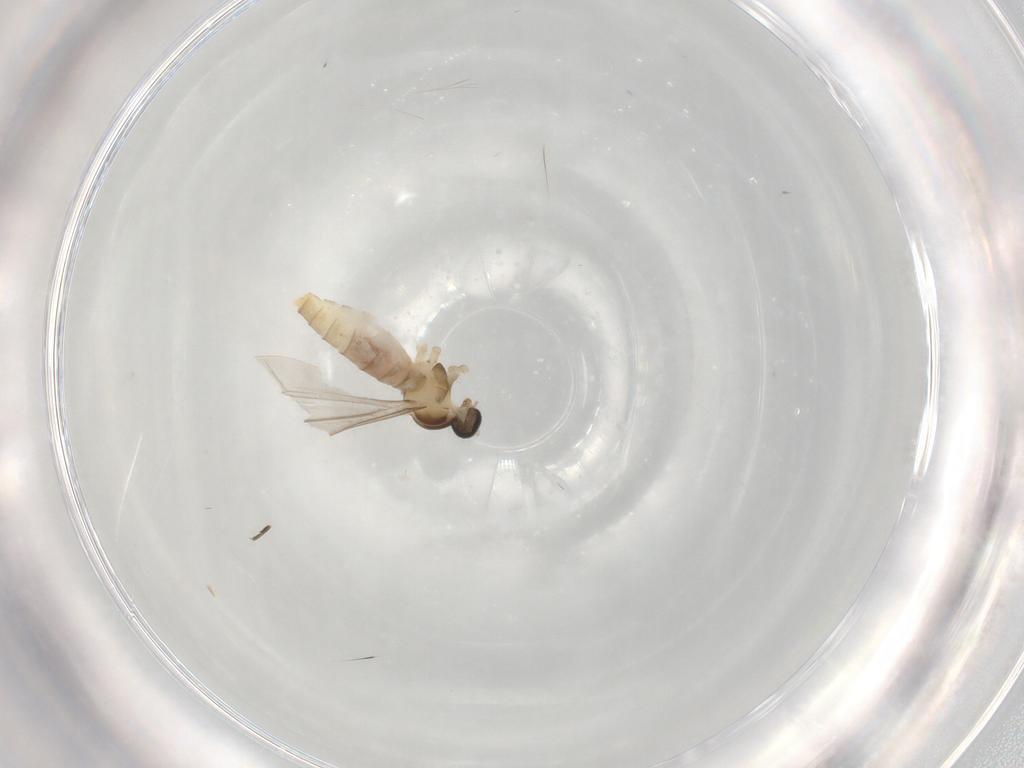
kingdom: Animalia
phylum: Arthropoda
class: Insecta
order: Diptera
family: Cecidomyiidae
